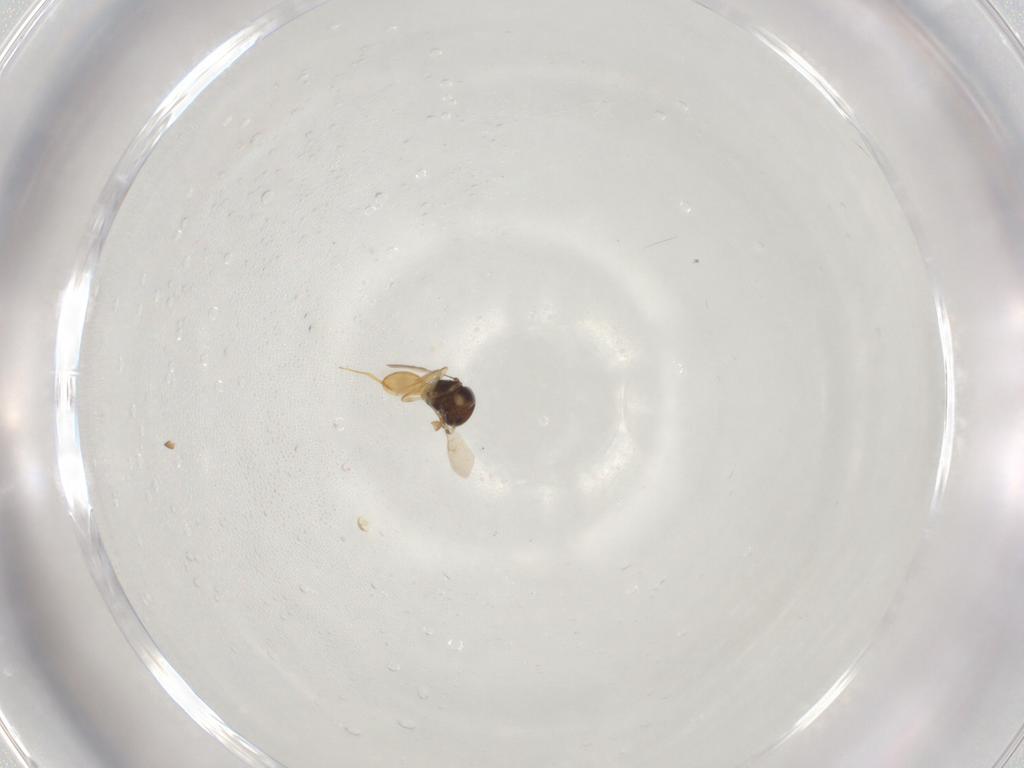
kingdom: Animalia
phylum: Arthropoda
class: Insecta
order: Hymenoptera
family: Scelionidae
